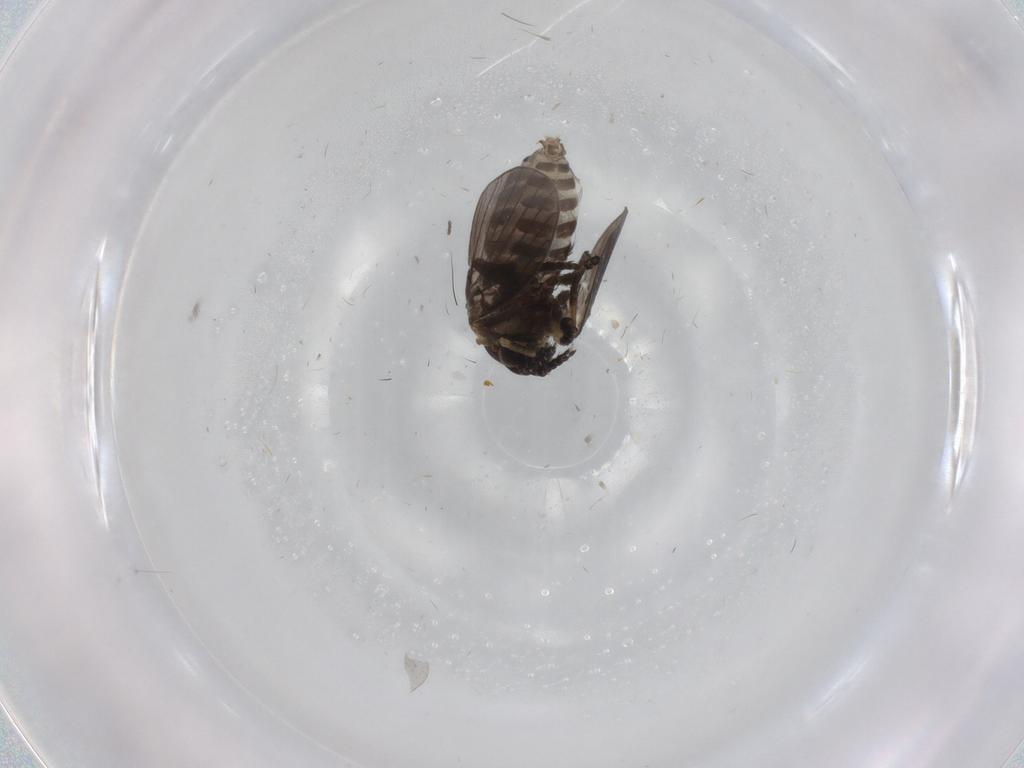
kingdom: Animalia
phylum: Arthropoda
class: Insecta
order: Diptera
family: Psychodidae
